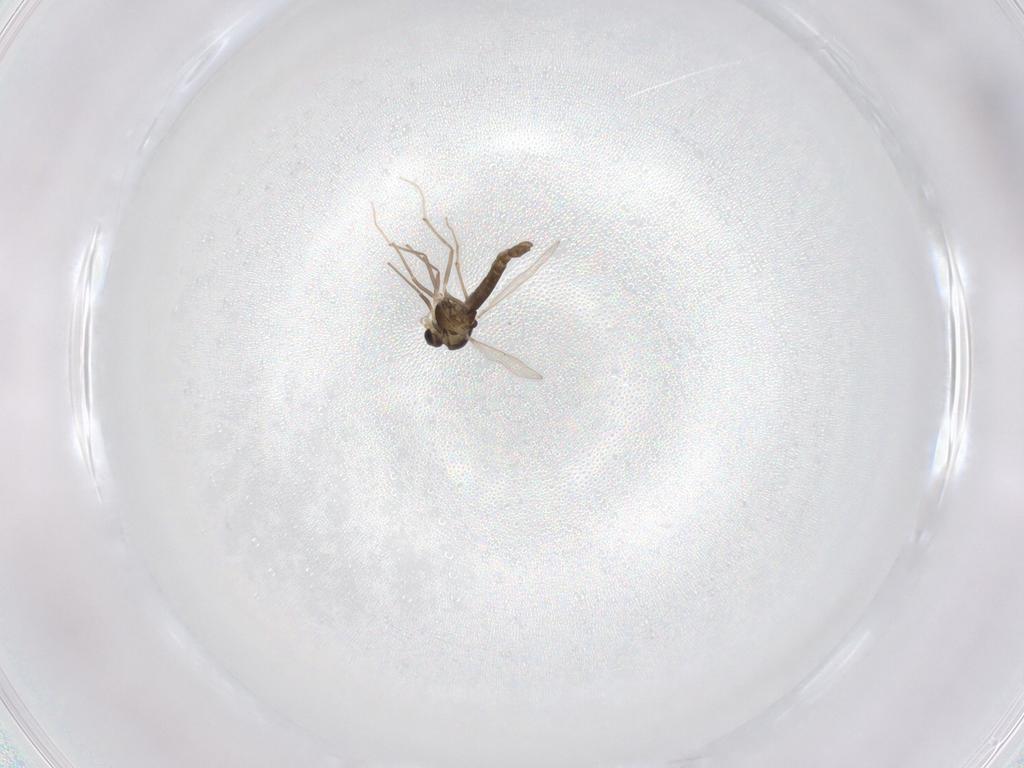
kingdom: Animalia
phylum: Arthropoda
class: Insecta
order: Diptera
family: Chironomidae
